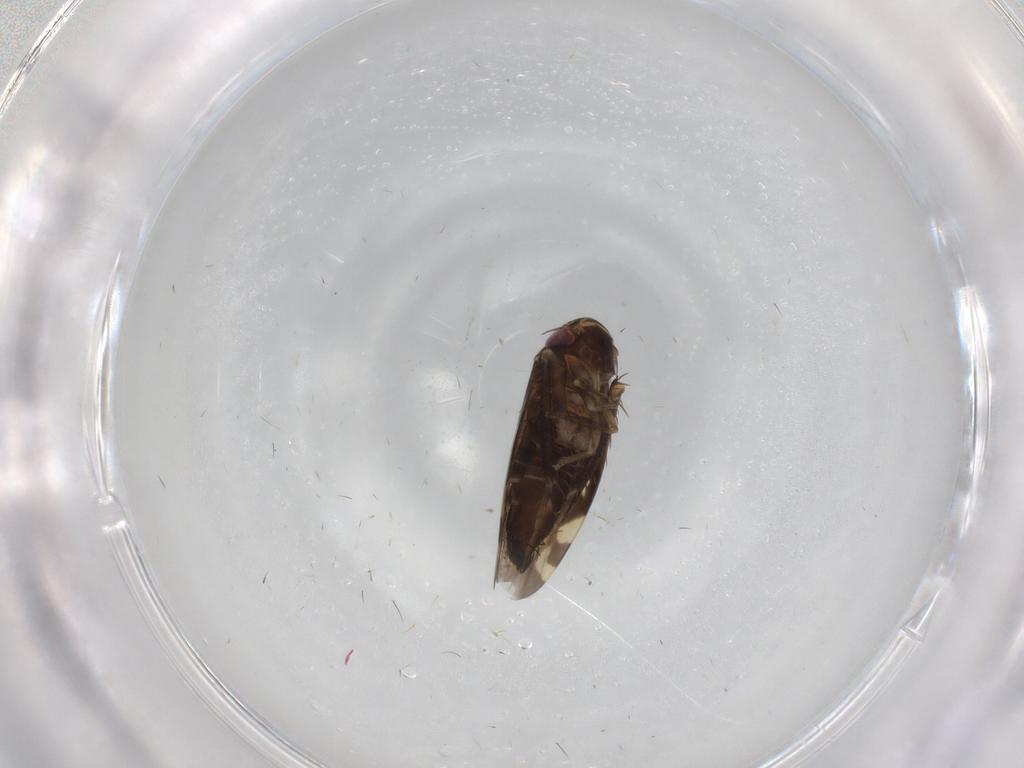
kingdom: Animalia
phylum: Arthropoda
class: Insecta
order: Hemiptera
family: Cicadellidae
